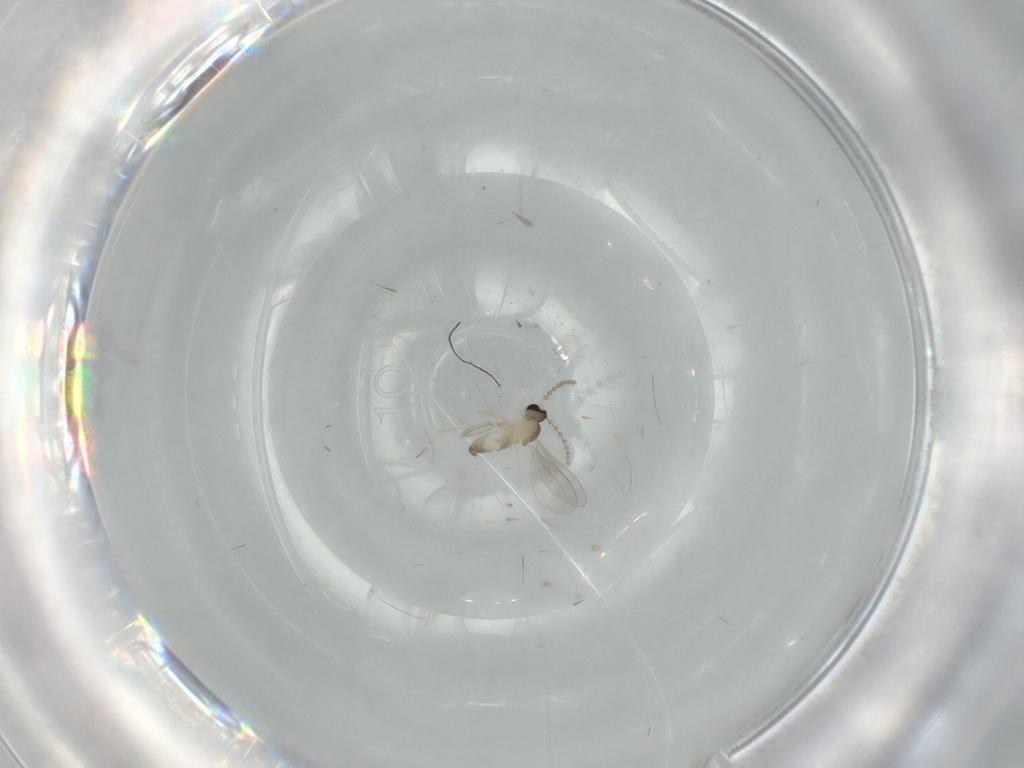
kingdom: Animalia
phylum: Arthropoda
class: Insecta
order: Diptera
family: Cecidomyiidae
